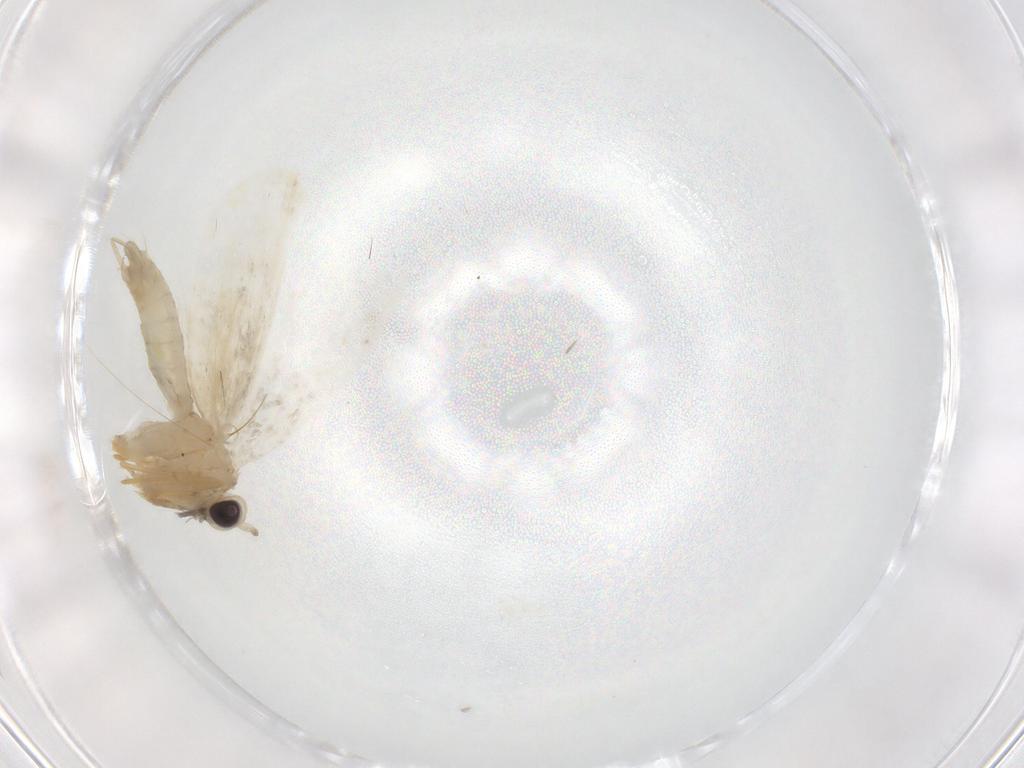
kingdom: Animalia
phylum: Arthropoda
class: Insecta
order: Lepidoptera
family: Psychidae
